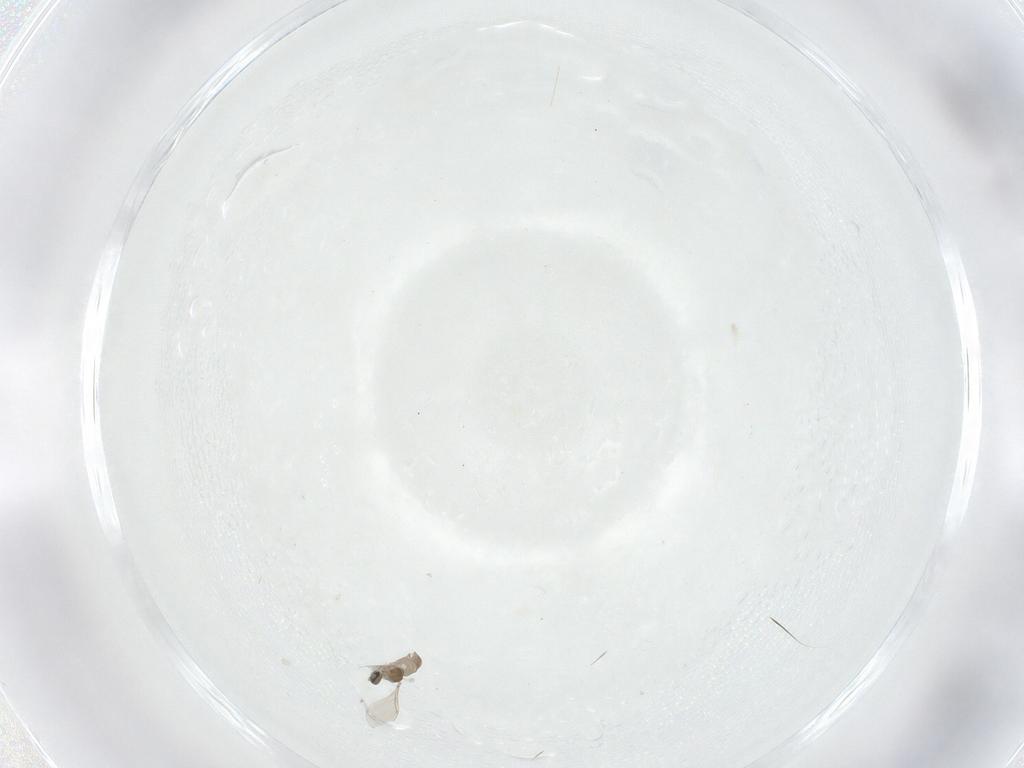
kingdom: Animalia
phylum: Arthropoda
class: Insecta
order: Diptera
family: Cecidomyiidae
